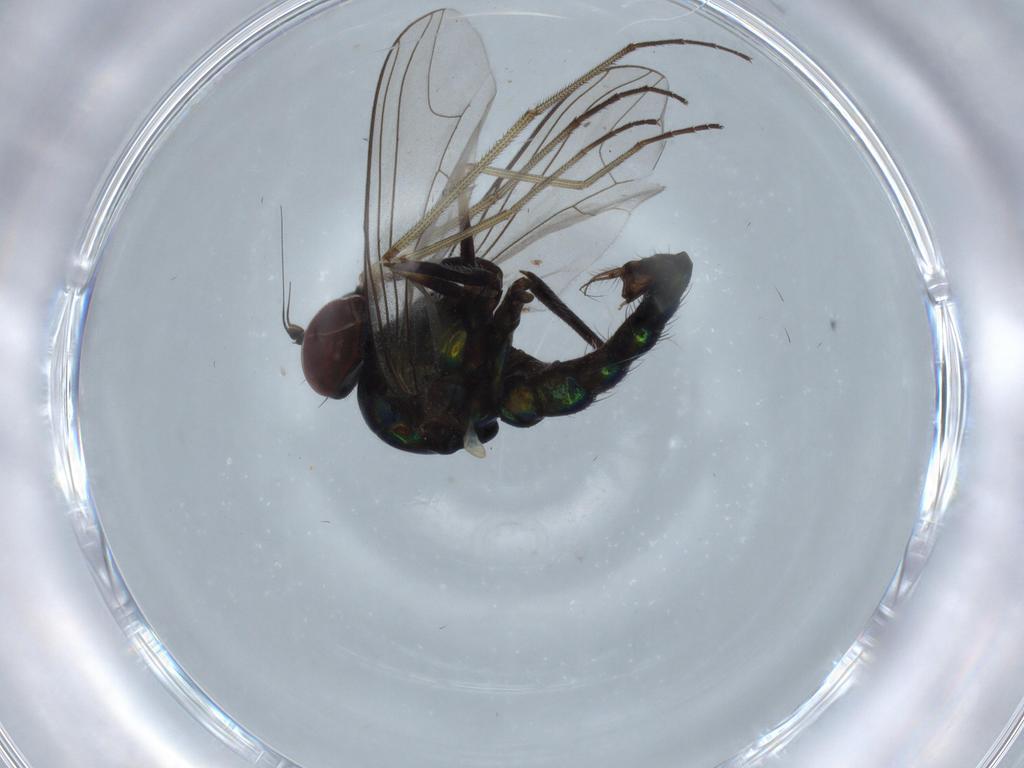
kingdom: Animalia
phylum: Arthropoda
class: Insecta
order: Diptera
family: Dolichopodidae
